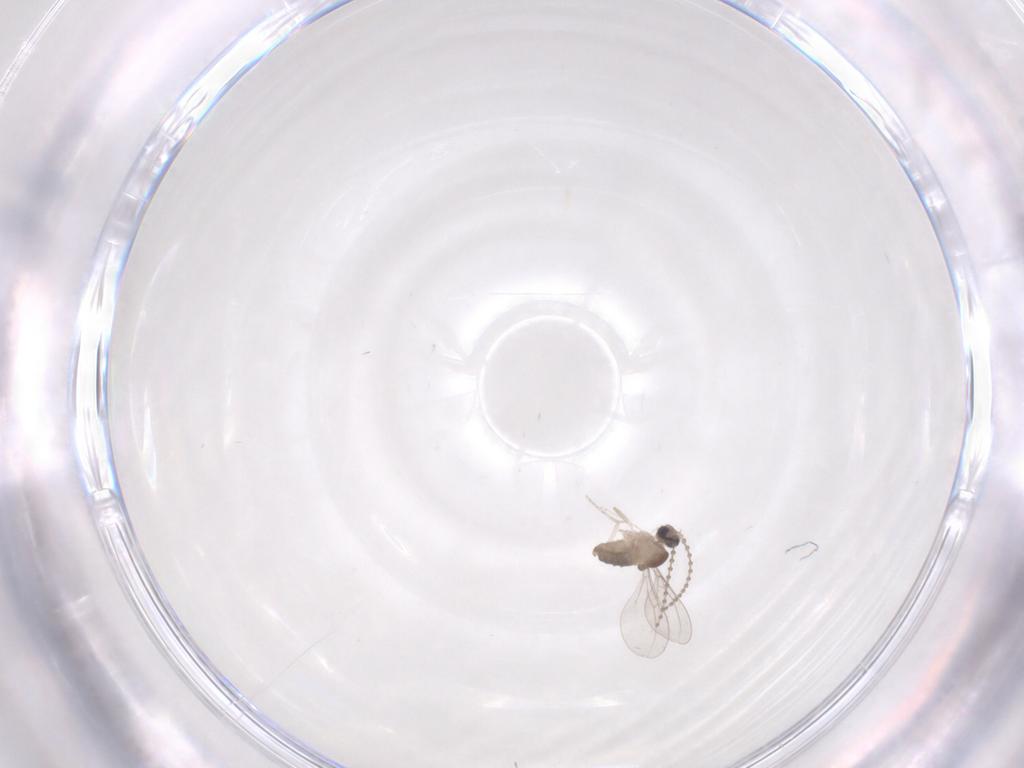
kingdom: Animalia
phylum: Arthropoda
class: Insecta
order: Diptera
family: Cecidomyiidae
